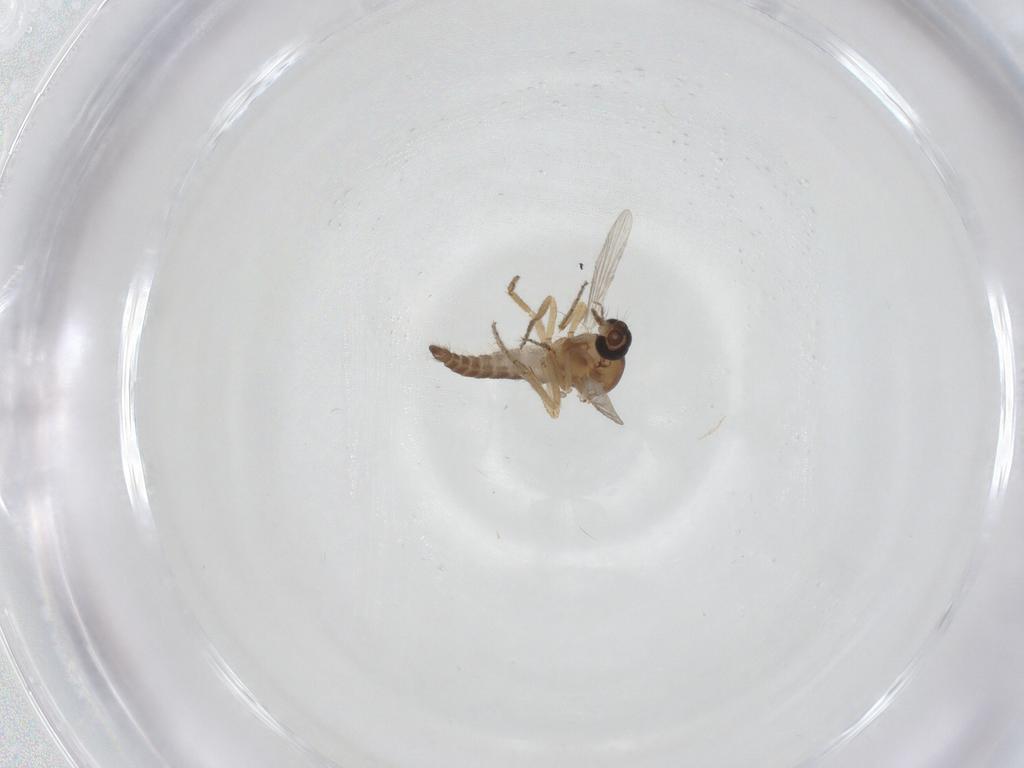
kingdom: Animalia
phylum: Arthropoda
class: Insecta
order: Diptera
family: Ceratopogonidae
